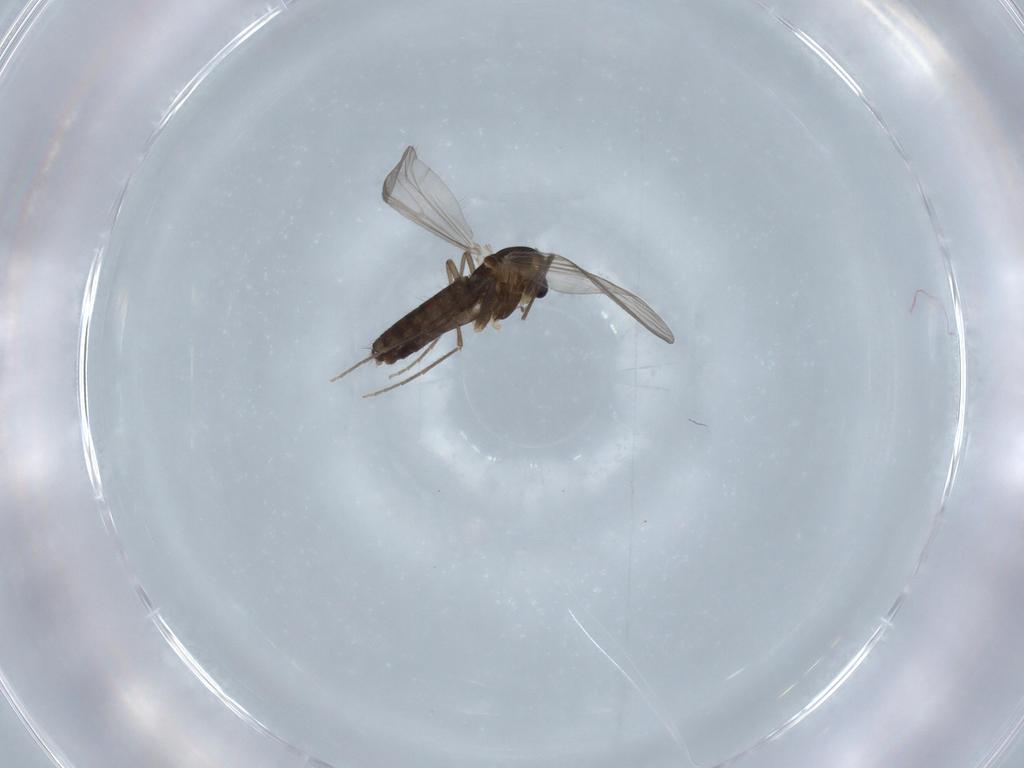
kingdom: Animalia
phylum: Arthropoda
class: Insecta
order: Diptera
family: Chironomidae
